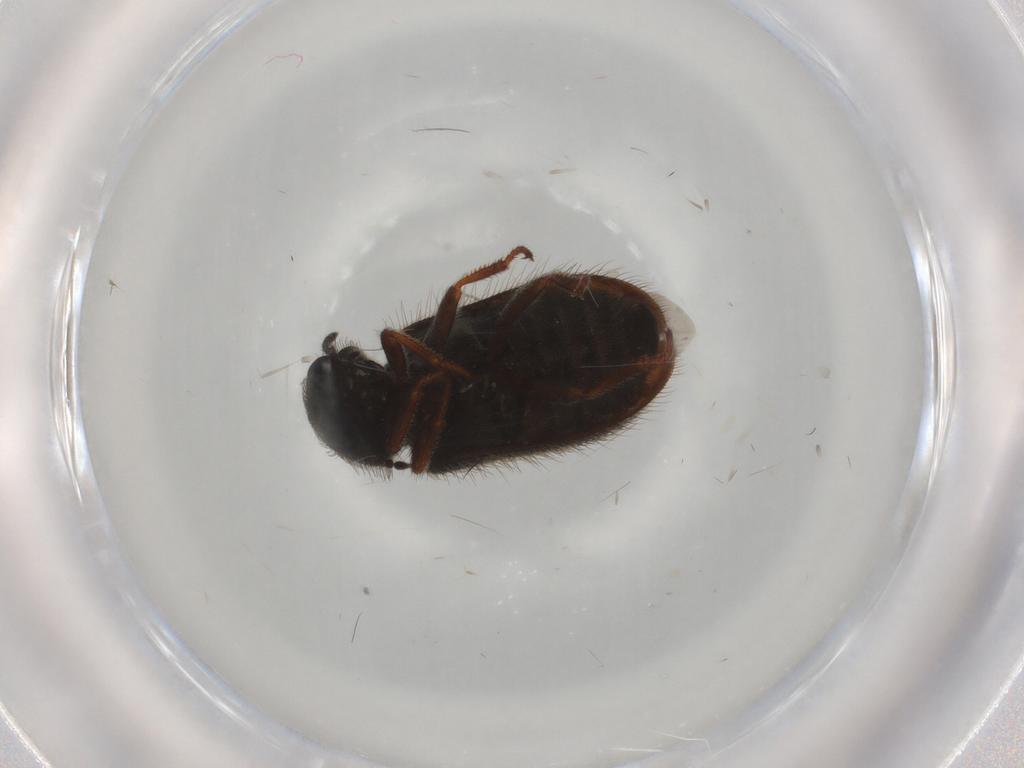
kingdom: Animalia
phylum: Arthropoda
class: Insecta
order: Coleoptera
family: Melyridae
